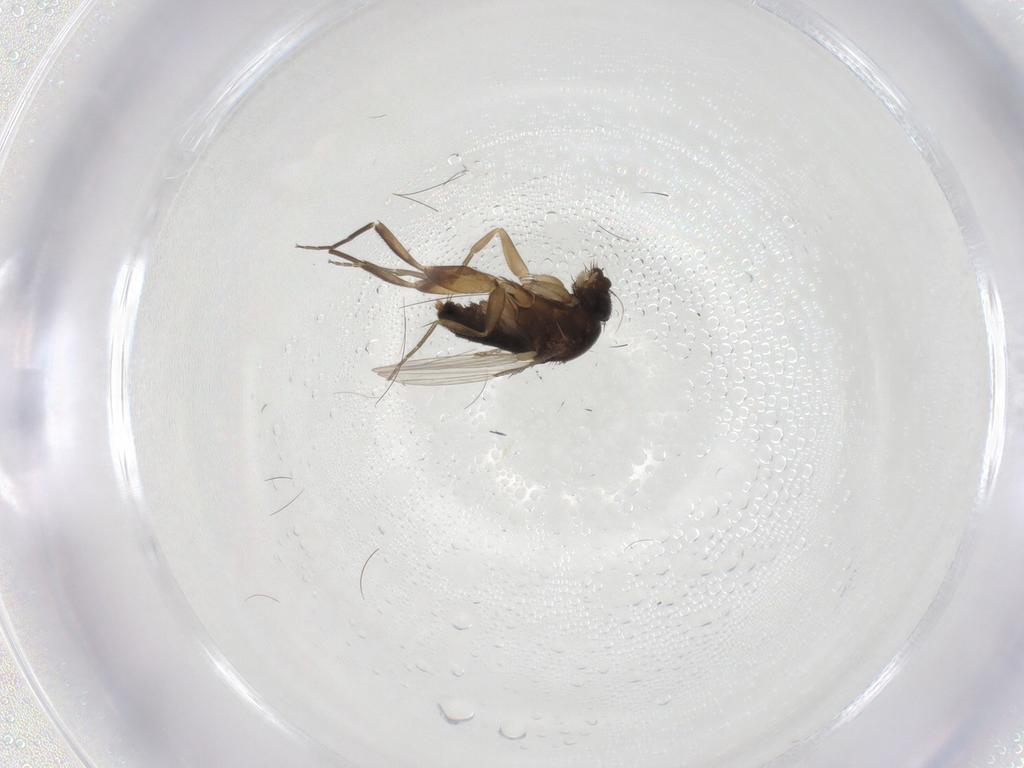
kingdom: Animalia
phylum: Arthropoda
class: Insecta
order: Diptera
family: Phoridae
